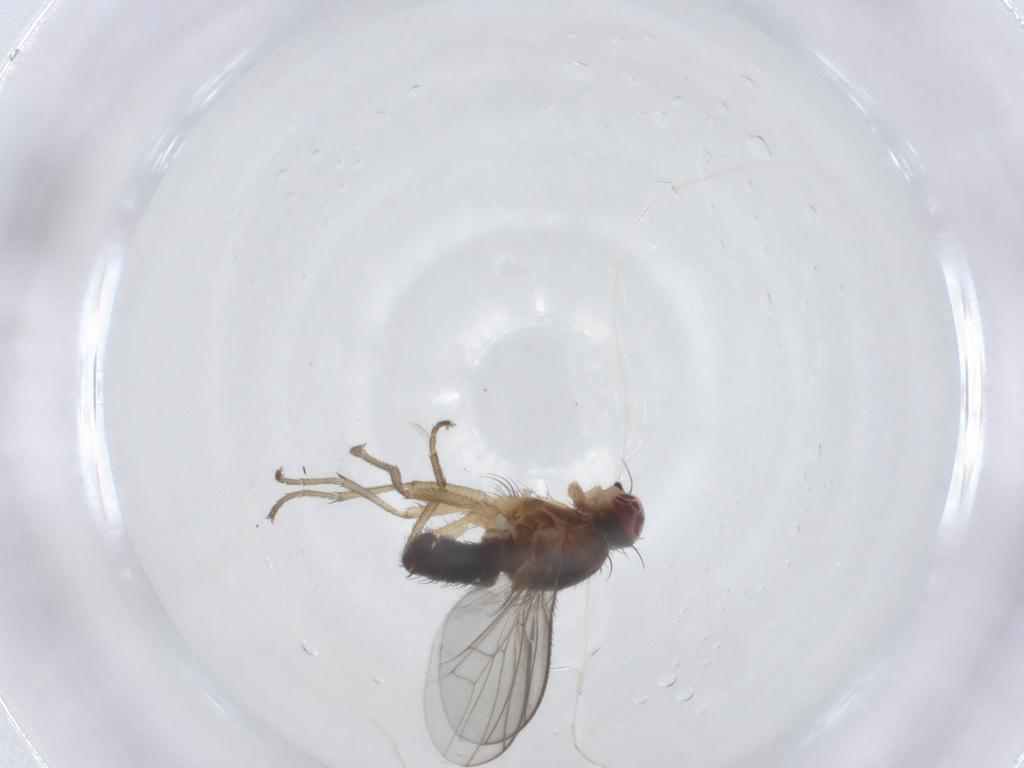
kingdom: Animalia
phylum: Arthropoda
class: Insecta
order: Diptera
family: Heleomyzidae
